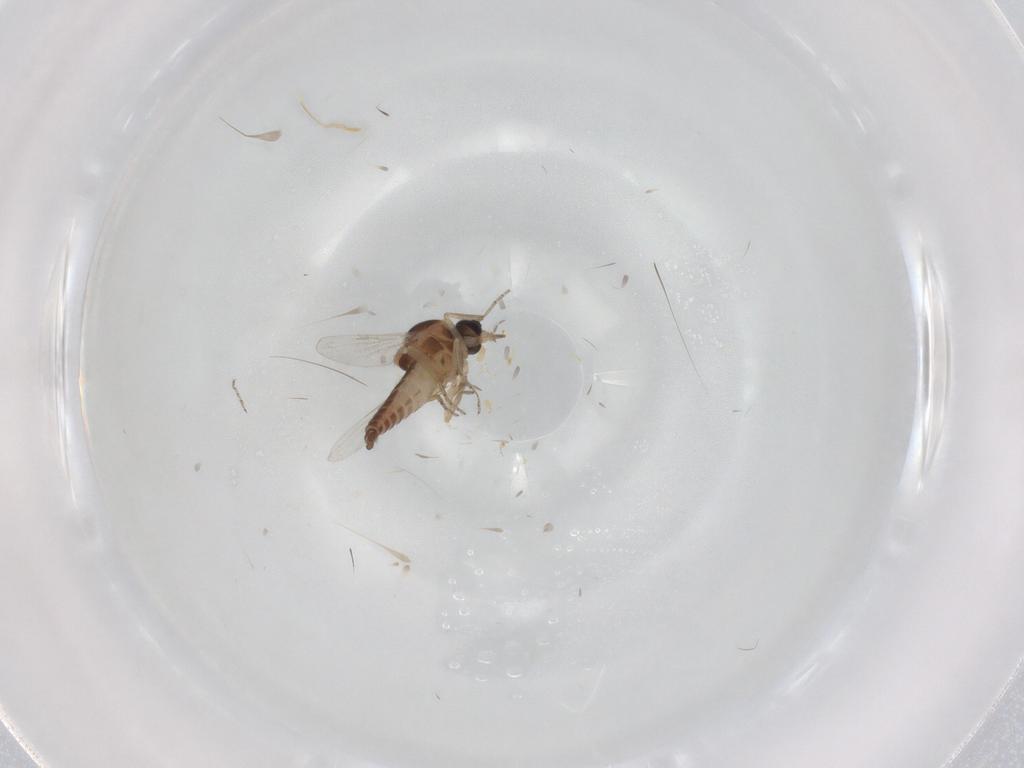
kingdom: Animalia
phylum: Arthropoda
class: Insecta
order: Diptera
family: Ceratopogonidae
